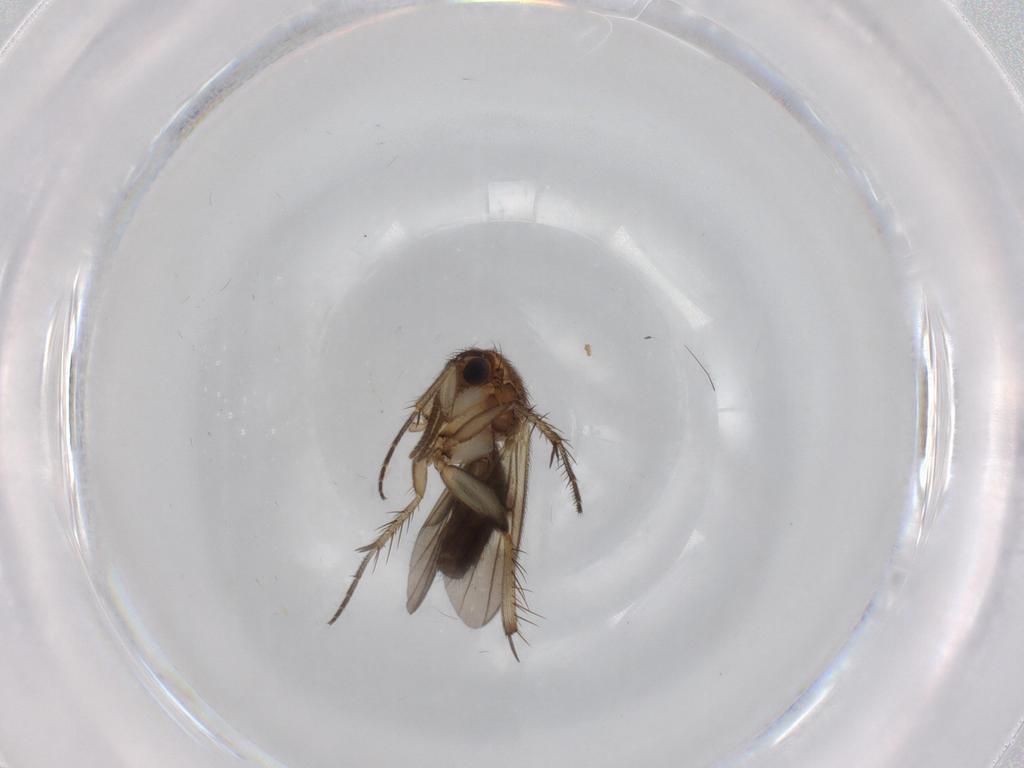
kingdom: Animalia
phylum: Arthropoda
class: Insecta
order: Diptera
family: Sciaridae
